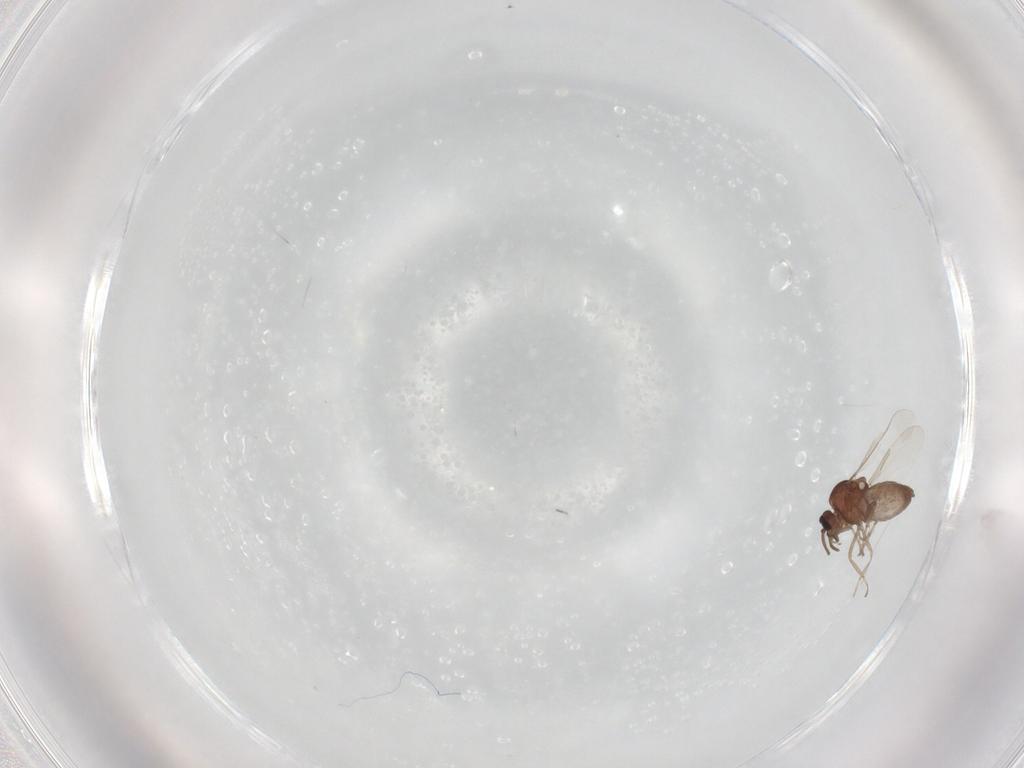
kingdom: Animalia
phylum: Arthropoda
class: Insecta
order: Diptera
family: Ceratopogonidae
